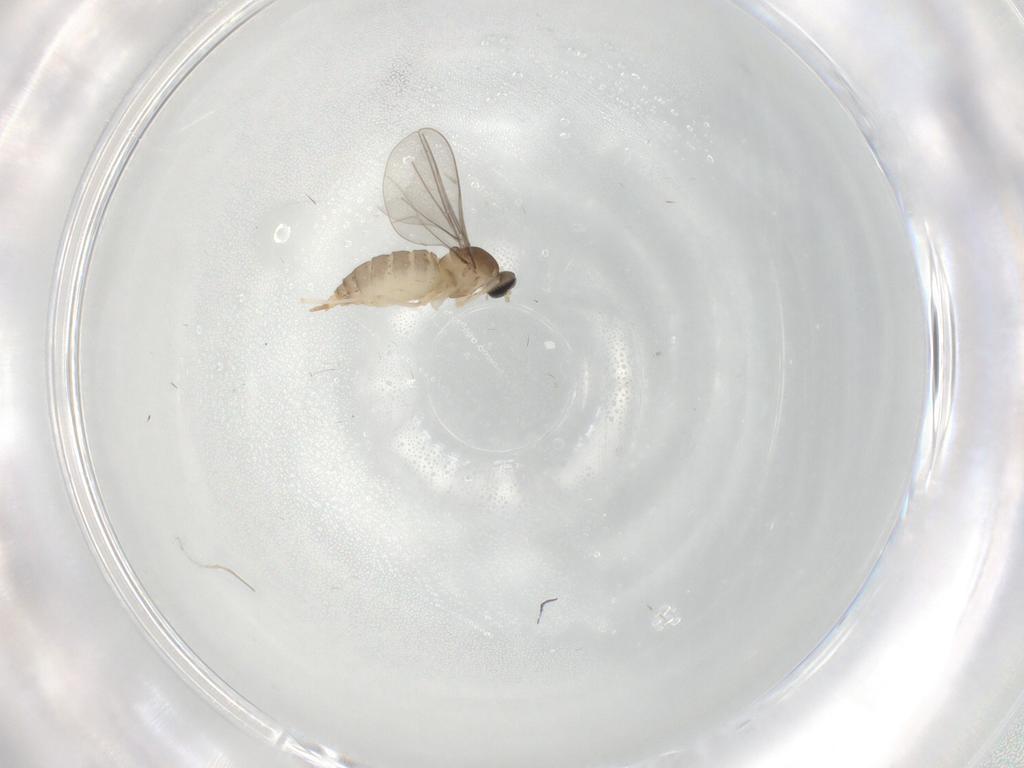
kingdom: Animalia
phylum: Arthropoda
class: Insecta
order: Diptera
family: Cecidomyiidae
